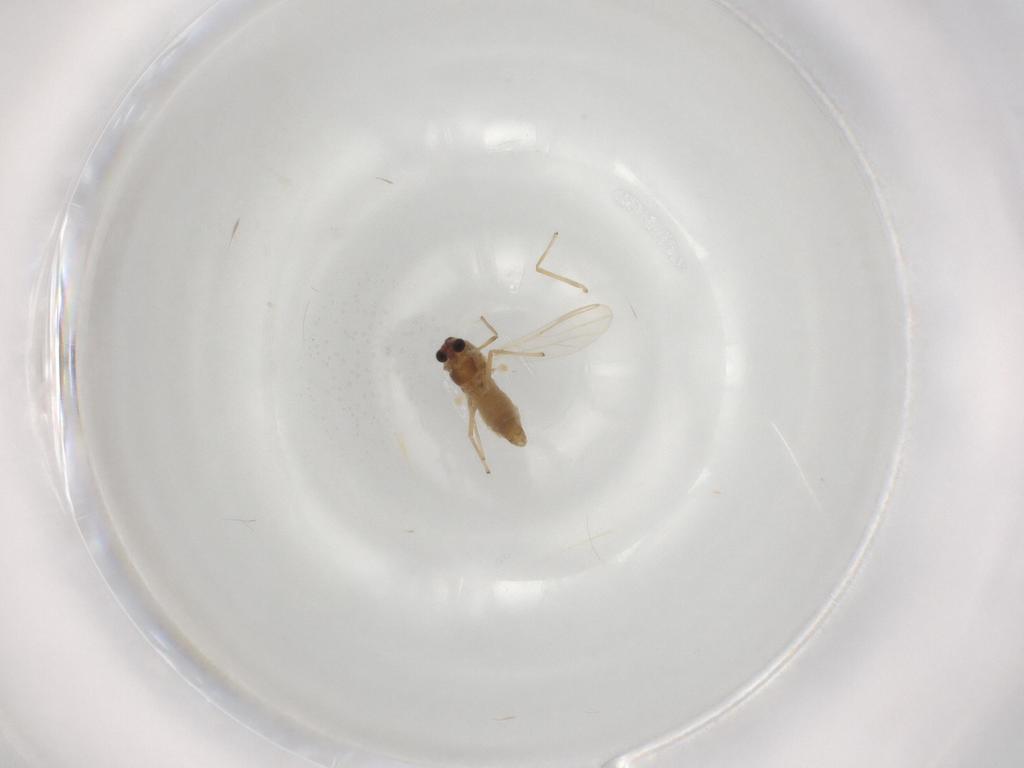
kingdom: Animalia
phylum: Arthropoda
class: Insecta
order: Diptera
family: Chironomidae
